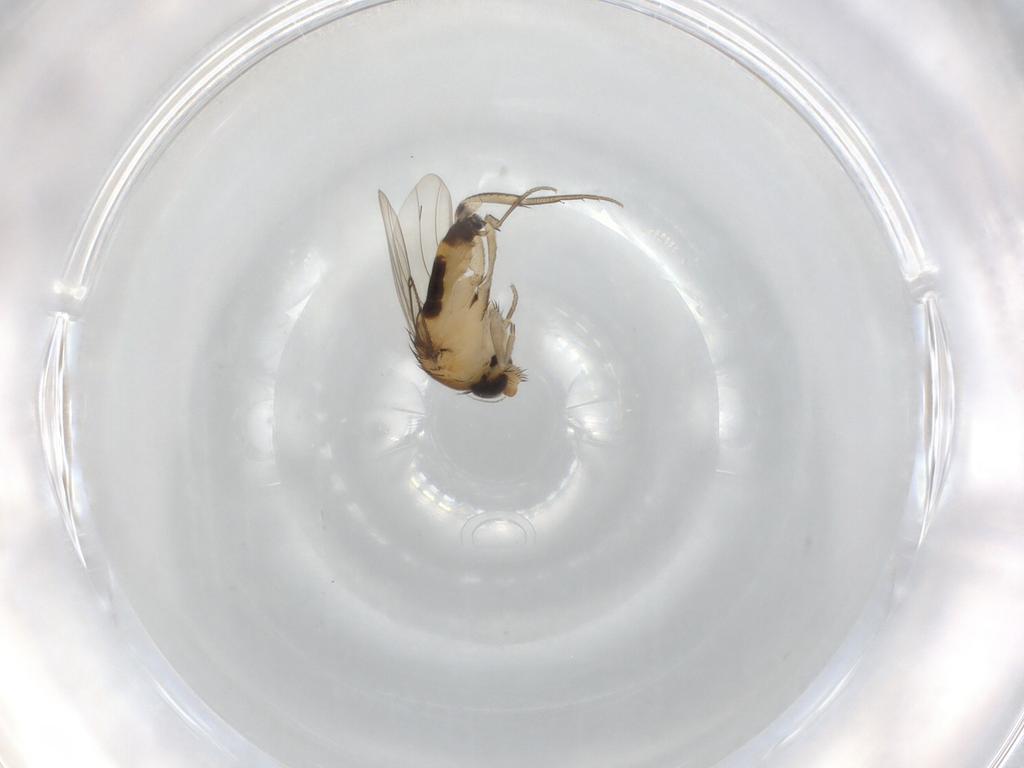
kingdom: Animalia
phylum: Arthropoda
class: Insecta
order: Diptera
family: Phoridae
